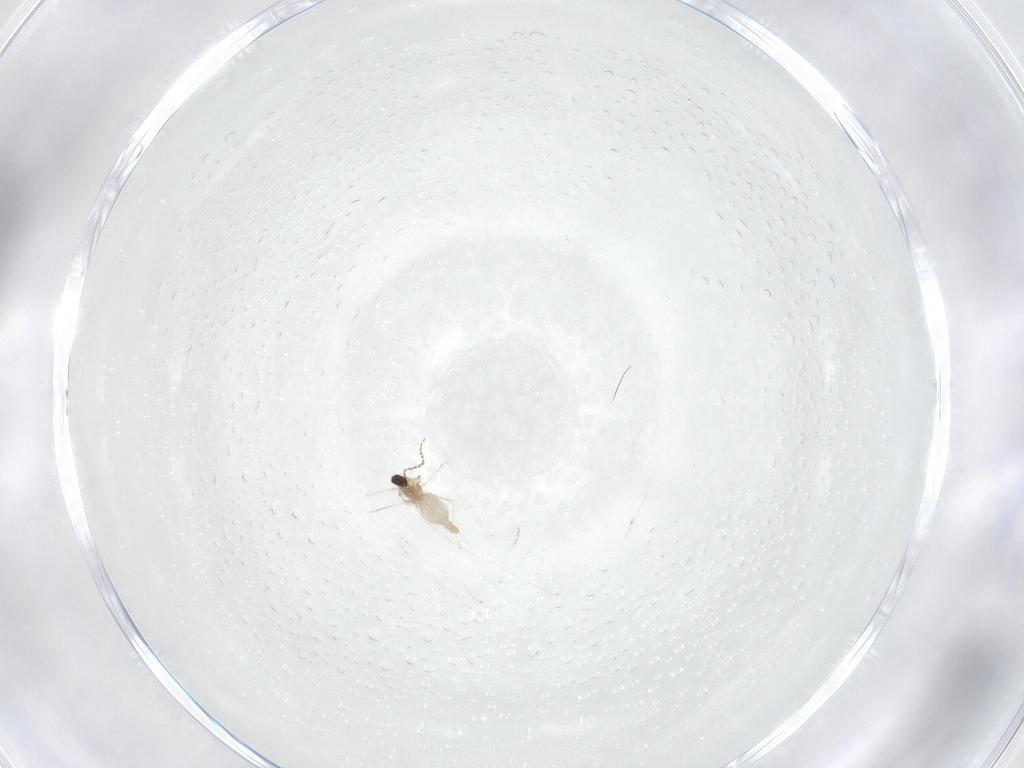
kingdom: Animalia
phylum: Arthropoda
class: Insecta
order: Diptera
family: Cecidomyiidae
